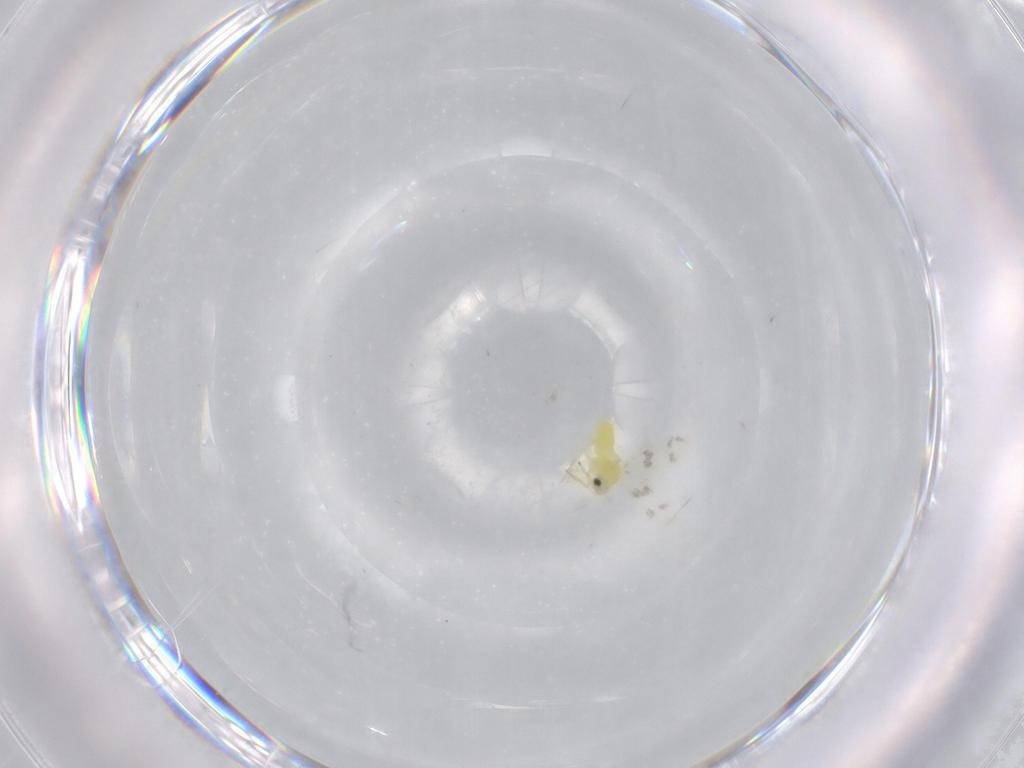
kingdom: Animalia
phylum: Arthropoda
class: Insecta
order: Hemiptera
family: Aleyrodidae
